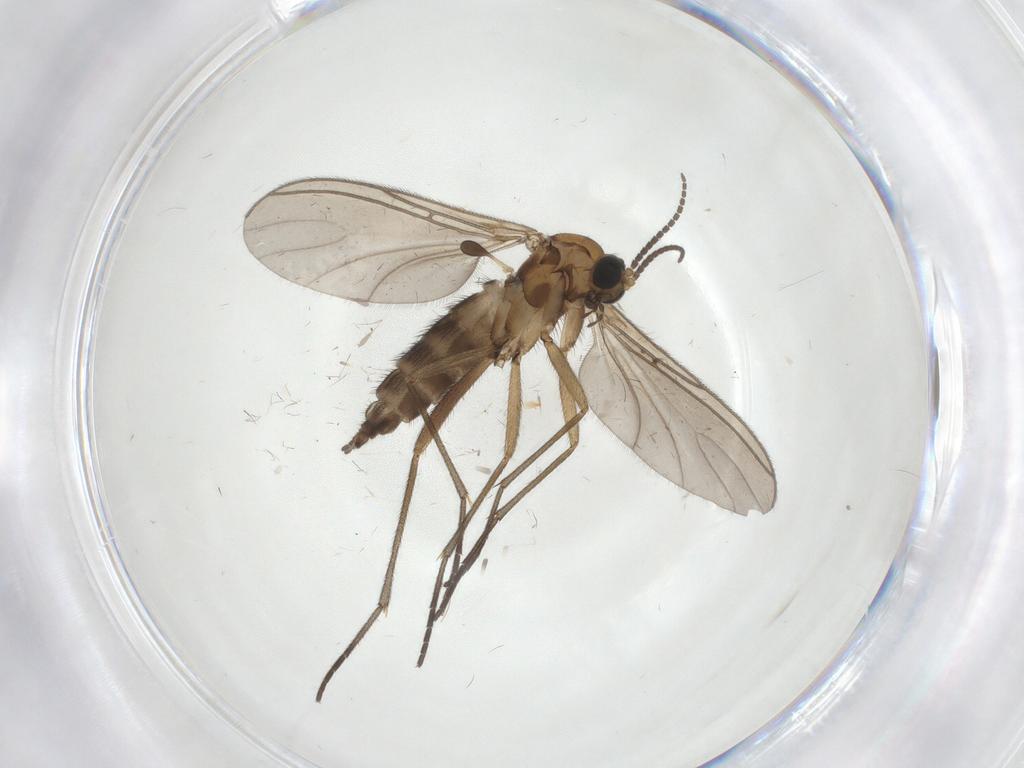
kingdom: Animalia
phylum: Arthropoda
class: Insecta
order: Diptera
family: Sciaridae
